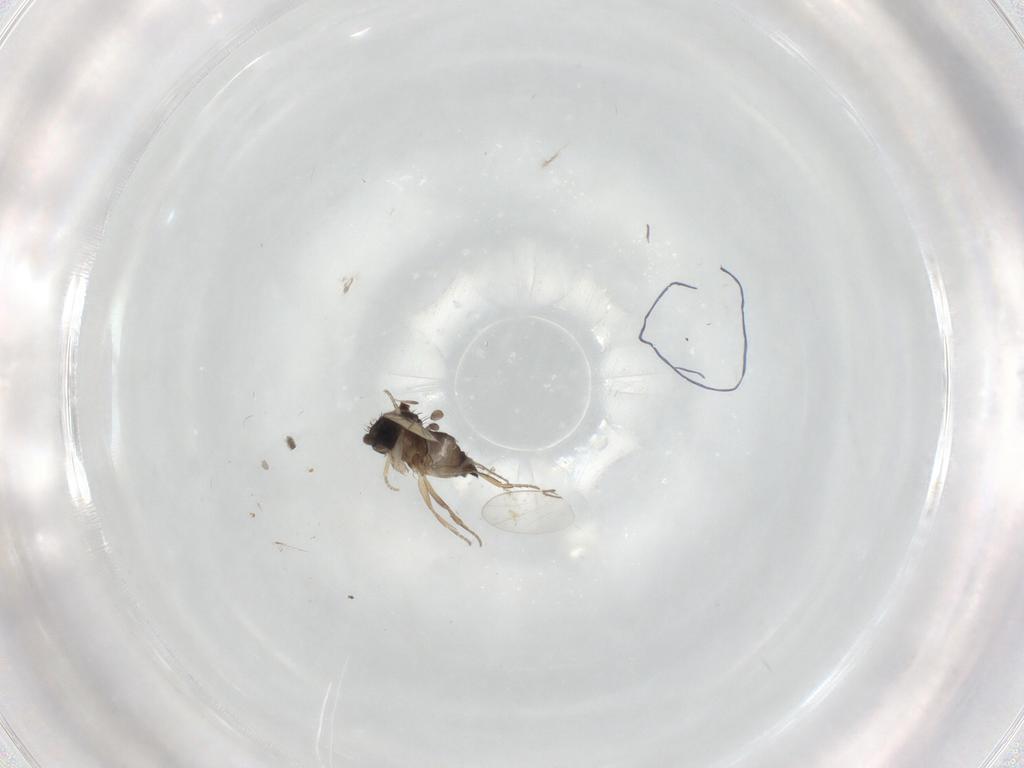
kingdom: Animalia
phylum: Arthropoda
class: Insecta
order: Diptera
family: Phoridae
